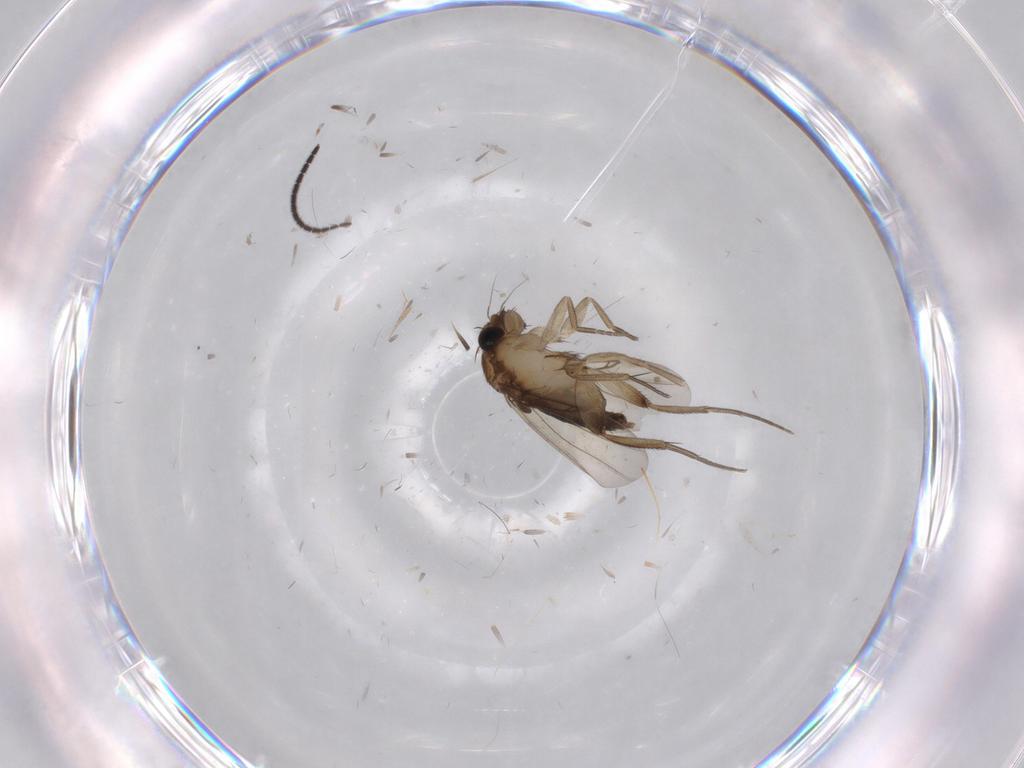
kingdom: Animalia
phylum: Arthropoda
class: Insecta
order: Diptera
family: Phoridae
